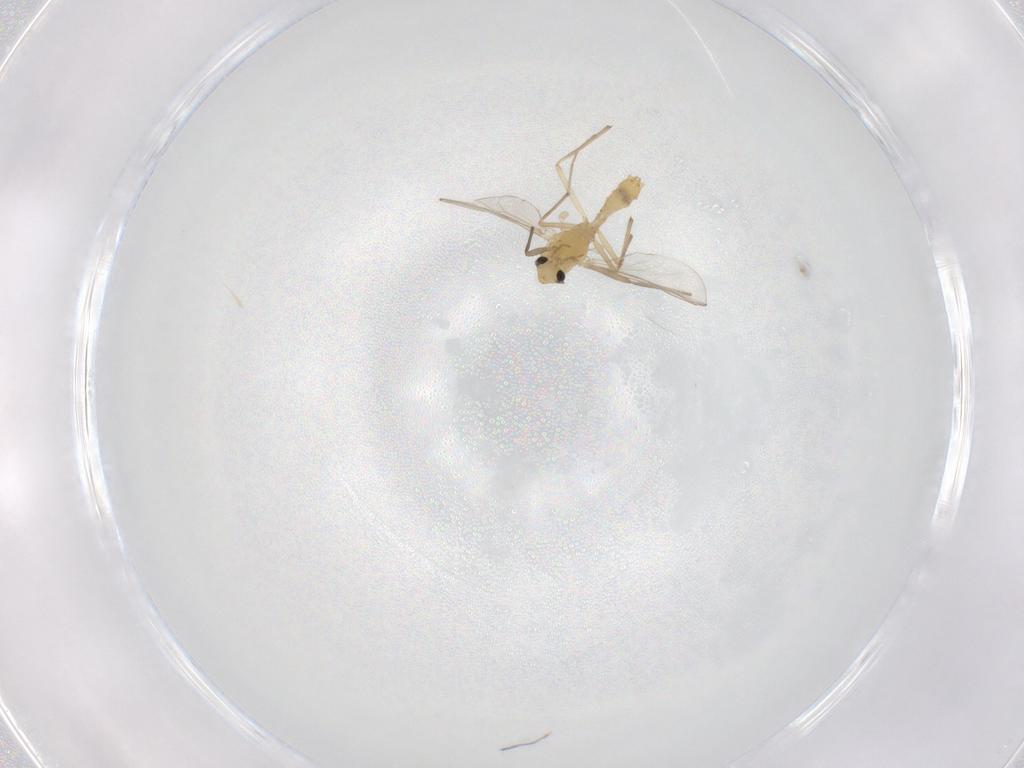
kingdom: Animalia
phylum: Arthropoda
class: Insecta
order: Diptera
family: Chironomidae
